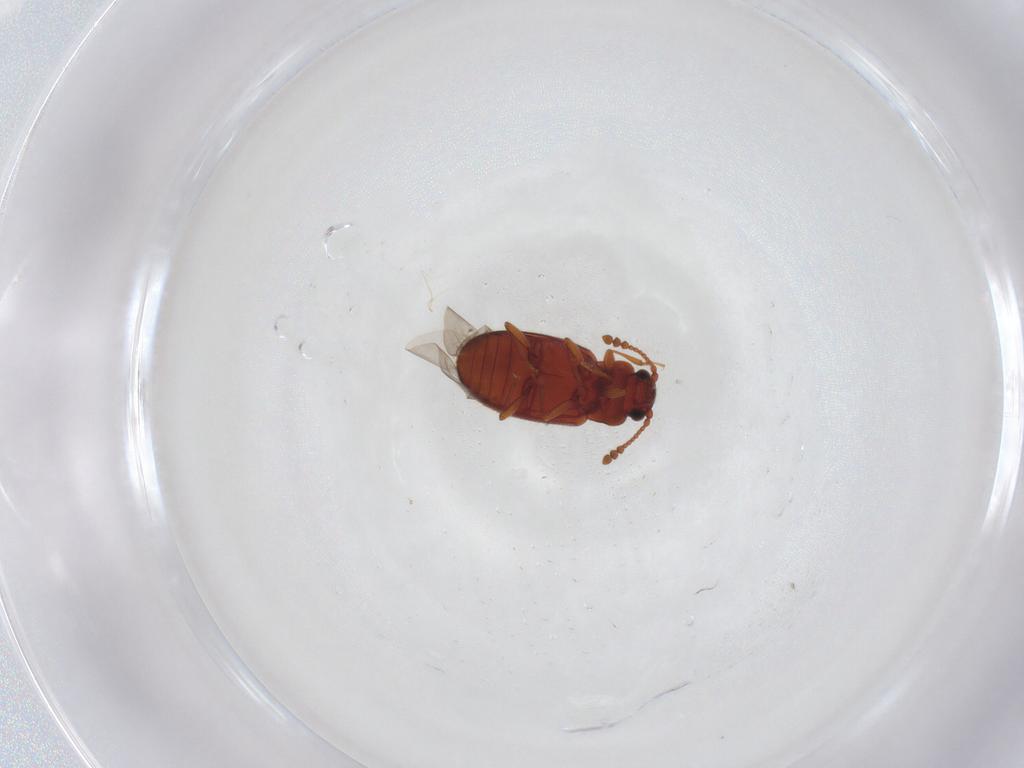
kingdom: Animalia
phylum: Arthropoda
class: Insecta
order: Coleoptera
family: Cryptophagidae
